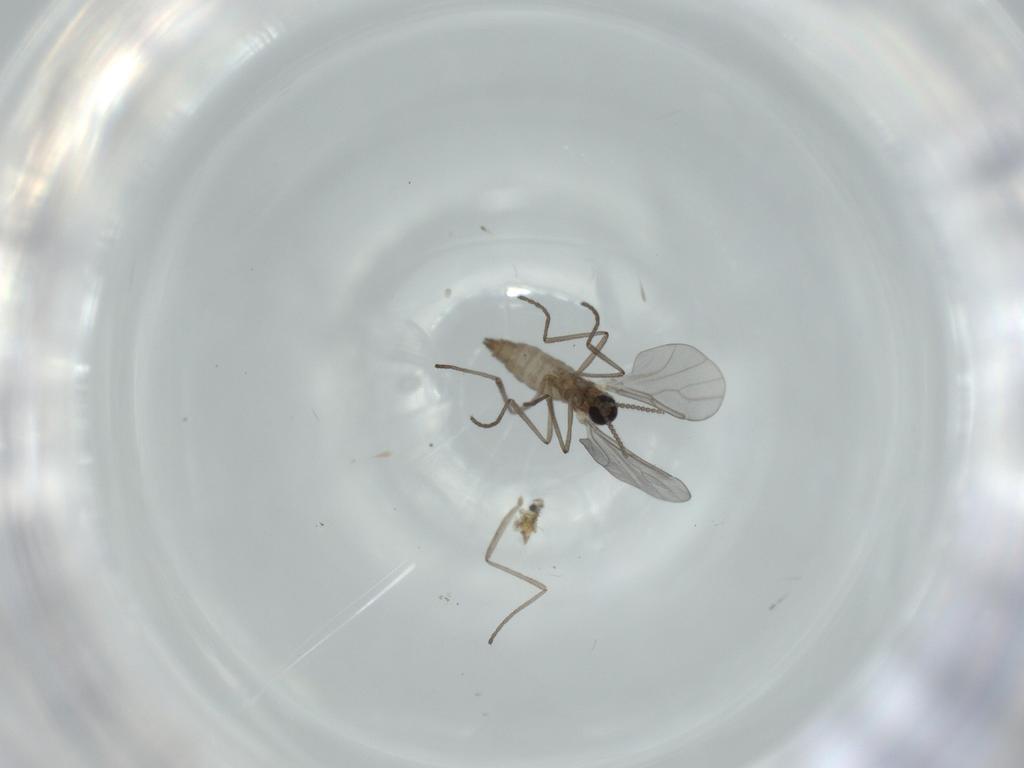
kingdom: Animalia
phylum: Arthropoda
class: Insecta
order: Diptera
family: Cecidomyiidae
